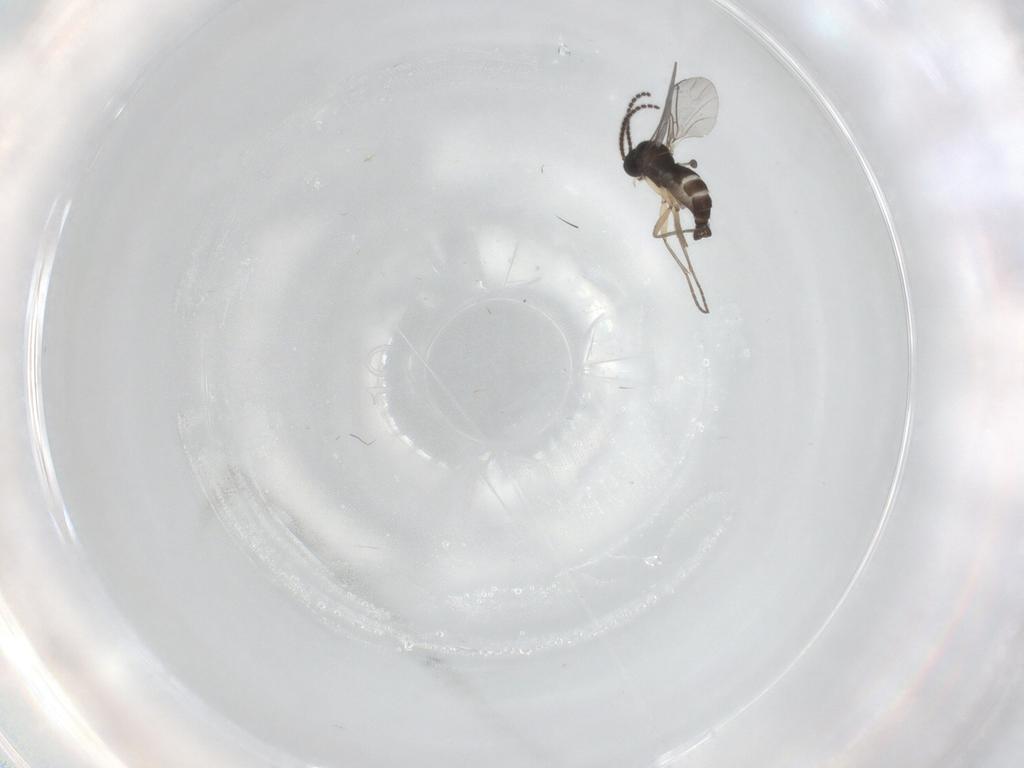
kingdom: Animalia
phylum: Arthropoda
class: Insecta
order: Diptera
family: Sciaridae
